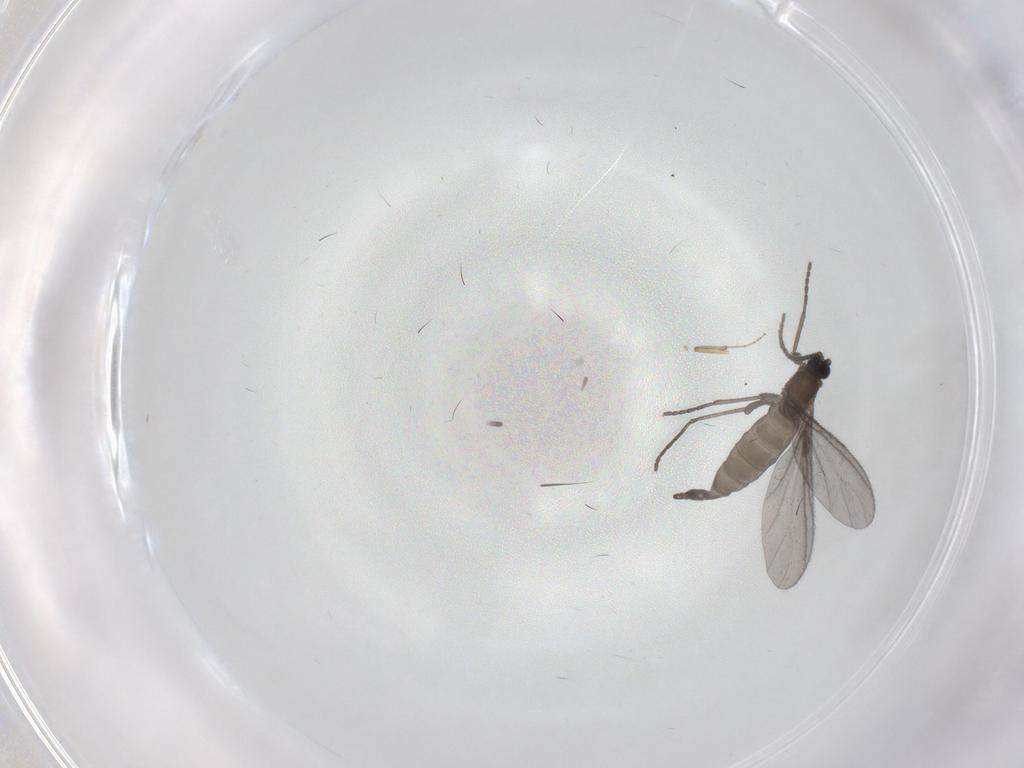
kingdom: Animalia
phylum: Arthropoda
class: Insecta
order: Diptera
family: Sciaridae
